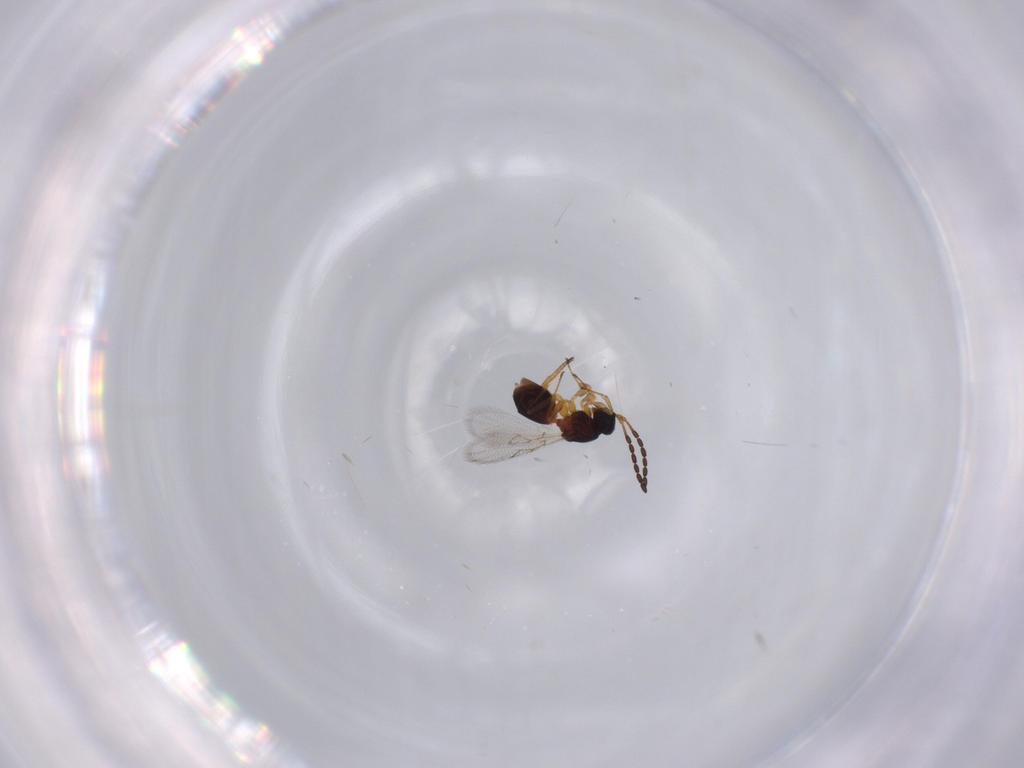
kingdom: Animalia
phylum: Arthropoda
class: Insecta
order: Hymenoptera
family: Figitidae
